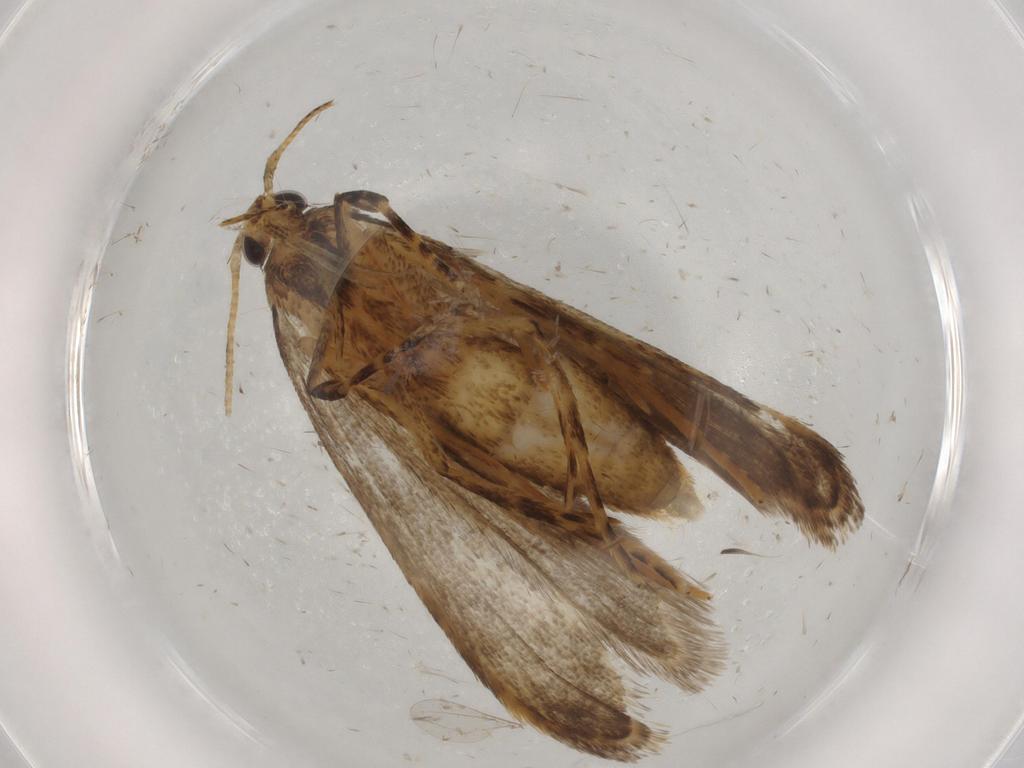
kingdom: Animalia
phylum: Arthropoda
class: Insecta
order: Lepidoptera
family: Autostichidae
